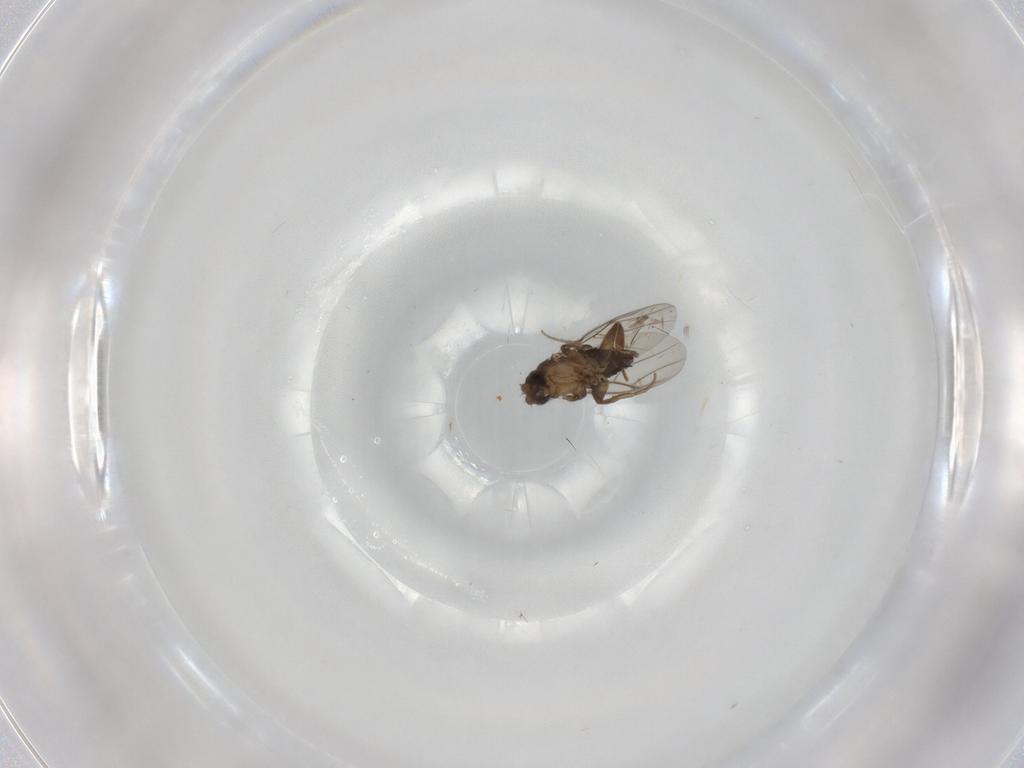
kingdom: Animalia
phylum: Arthropoda
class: Insecta
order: Diptera
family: Phoridae
